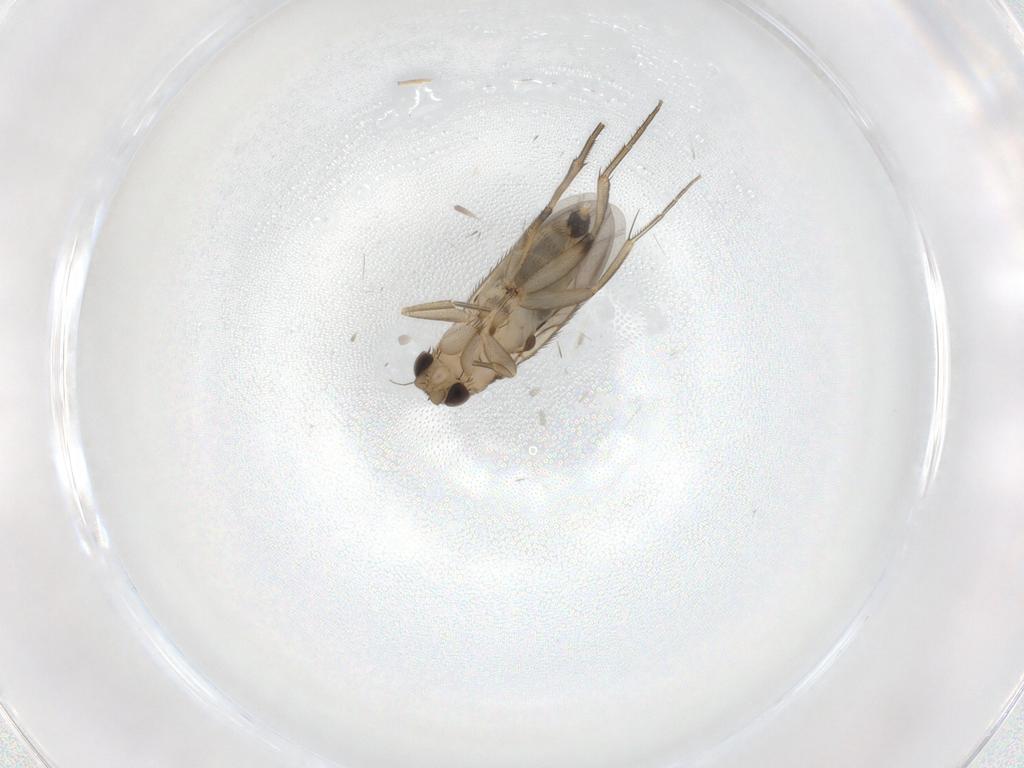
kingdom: Animalia
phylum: Arthropoda
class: Insecta
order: Diptera
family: Phoridae
